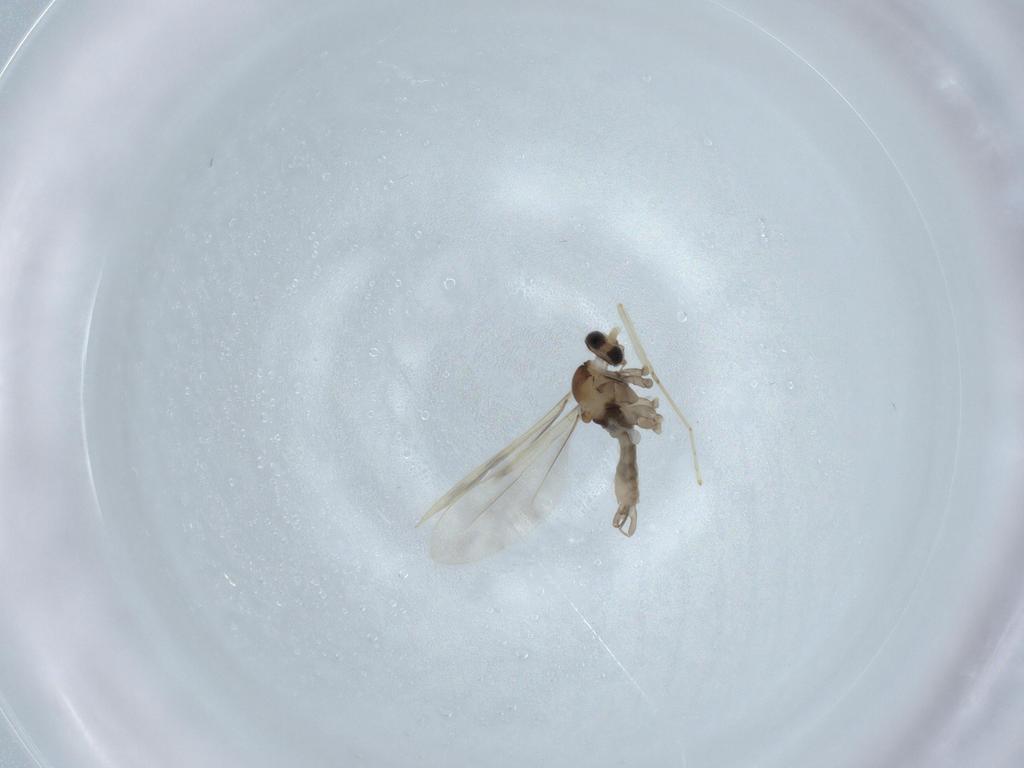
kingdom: Animalia
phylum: Arthropoda
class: Insecta
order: Diptera
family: Cecidomyiidae
